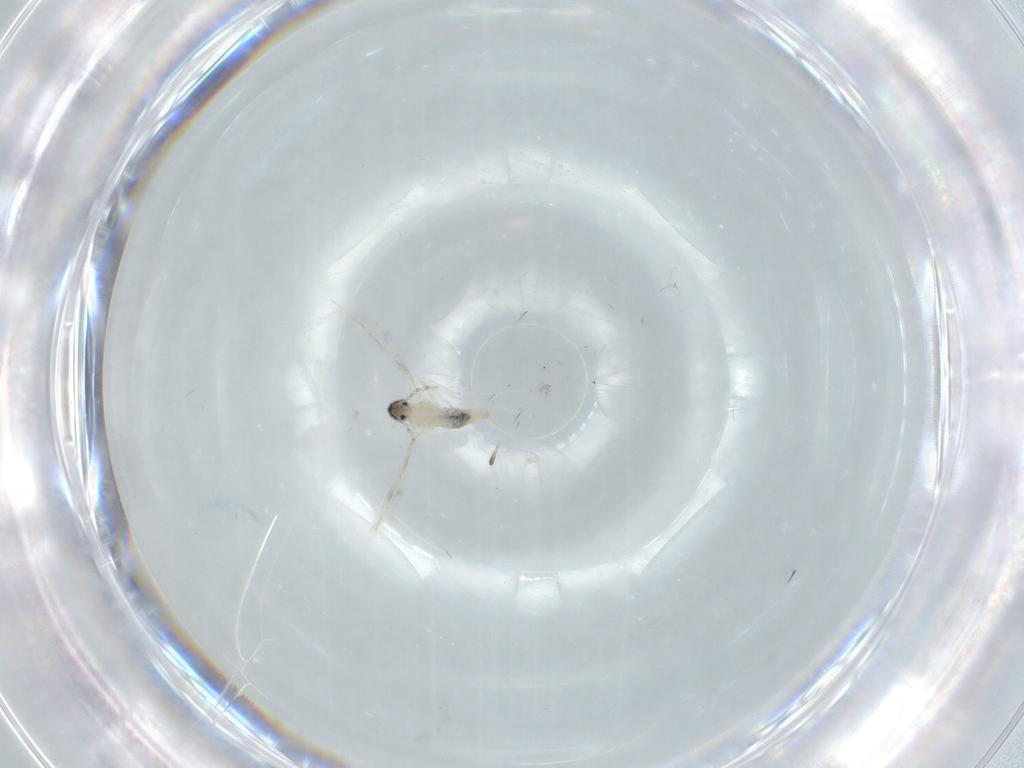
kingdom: Animalia
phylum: Arthropoda
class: Insecta
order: Diptera
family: Cecidomyiidae
